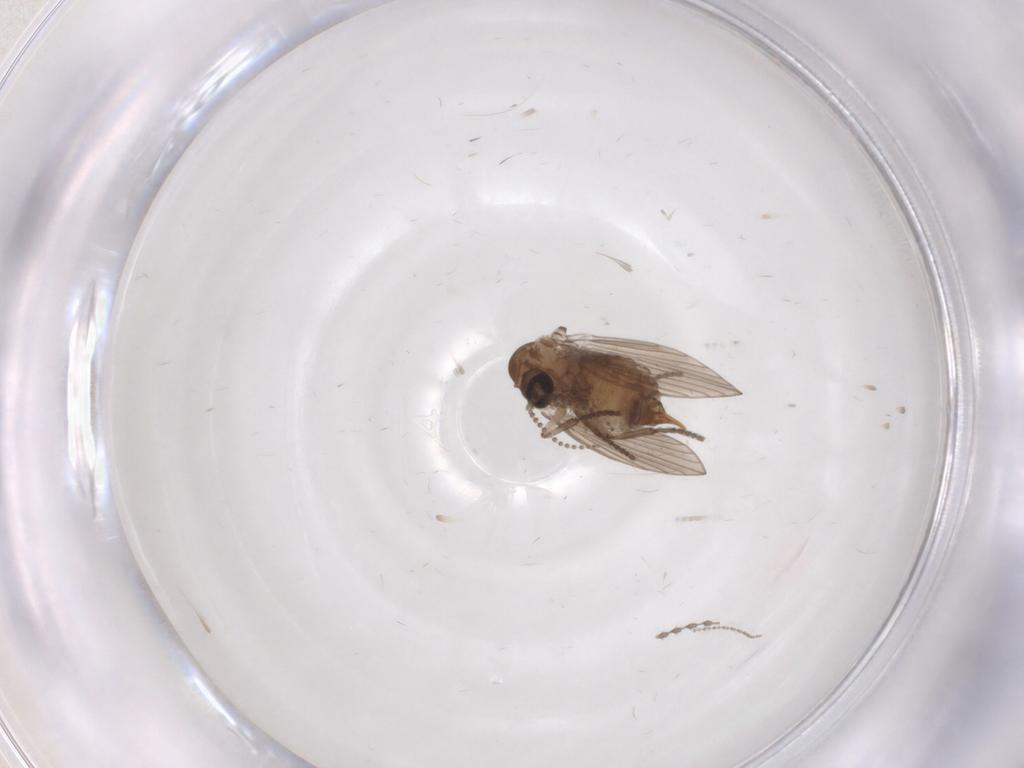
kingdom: Animalia
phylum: Arthropoda
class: Insecta
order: Diptera
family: Psychodidae
